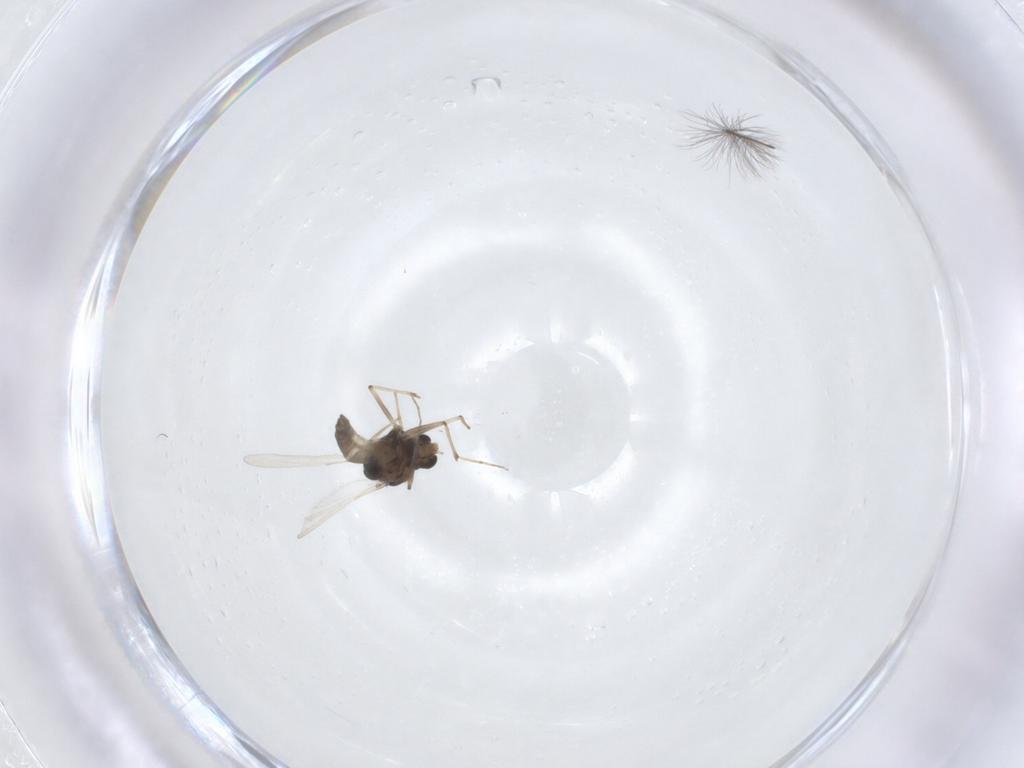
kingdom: Animalia
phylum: Arthropoda
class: Insecta
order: Diptera
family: Chironomidae
